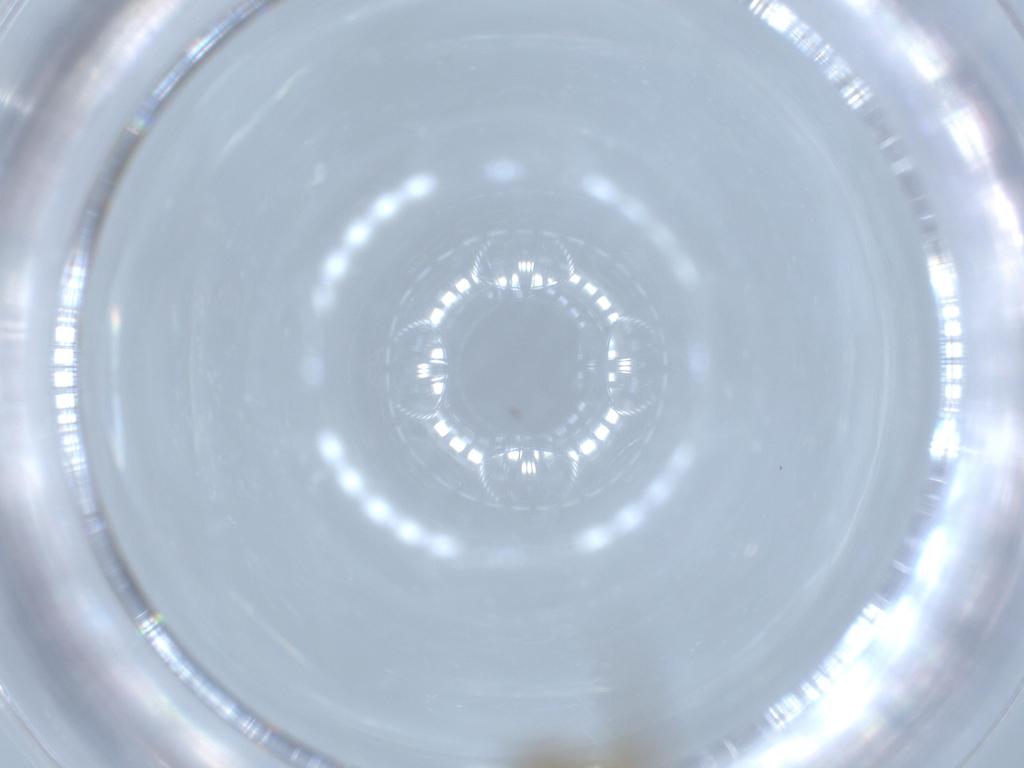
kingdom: Animalia
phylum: Arthropoda
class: Insecta
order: Diptera
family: Chironomidae
